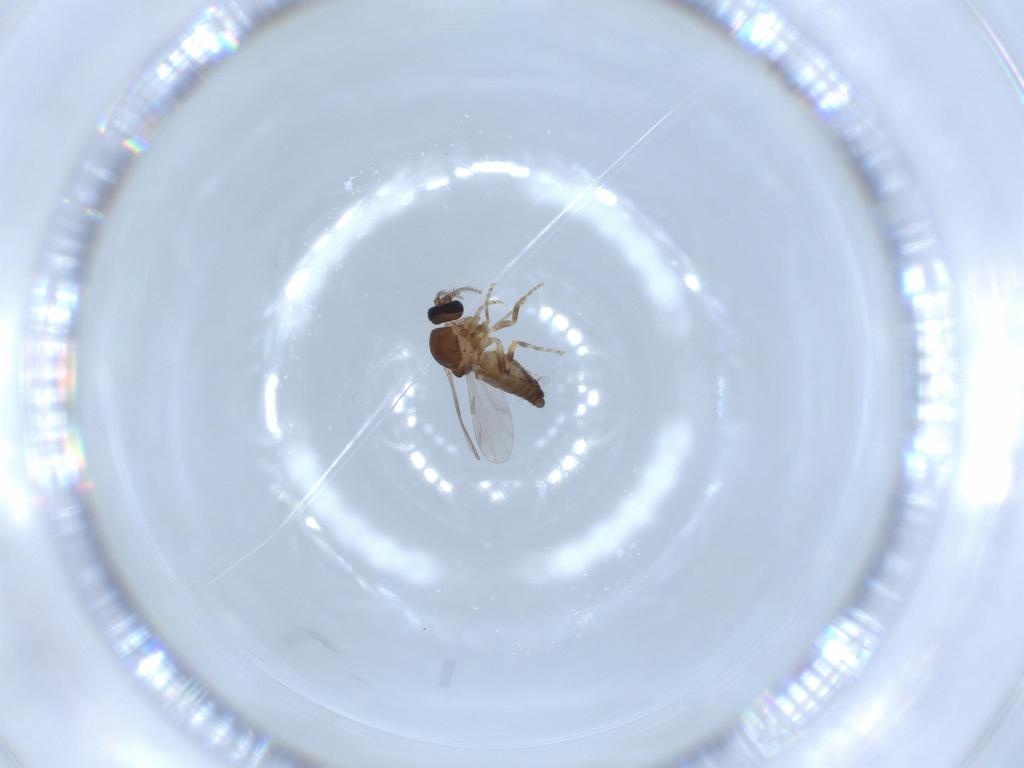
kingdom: Animalia
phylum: Arthropoda
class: Insecta
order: Diptera
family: Ceratopogonidae
